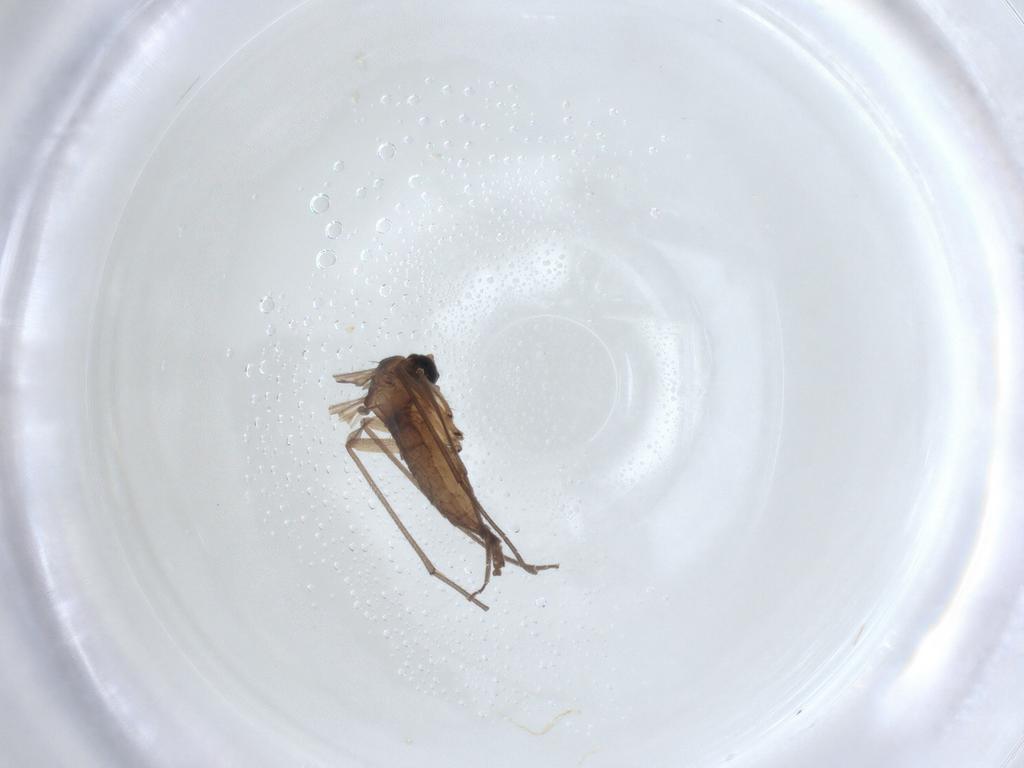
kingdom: Animalia
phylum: Arthropoda
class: Insecta
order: Diptera
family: Sciaridae
